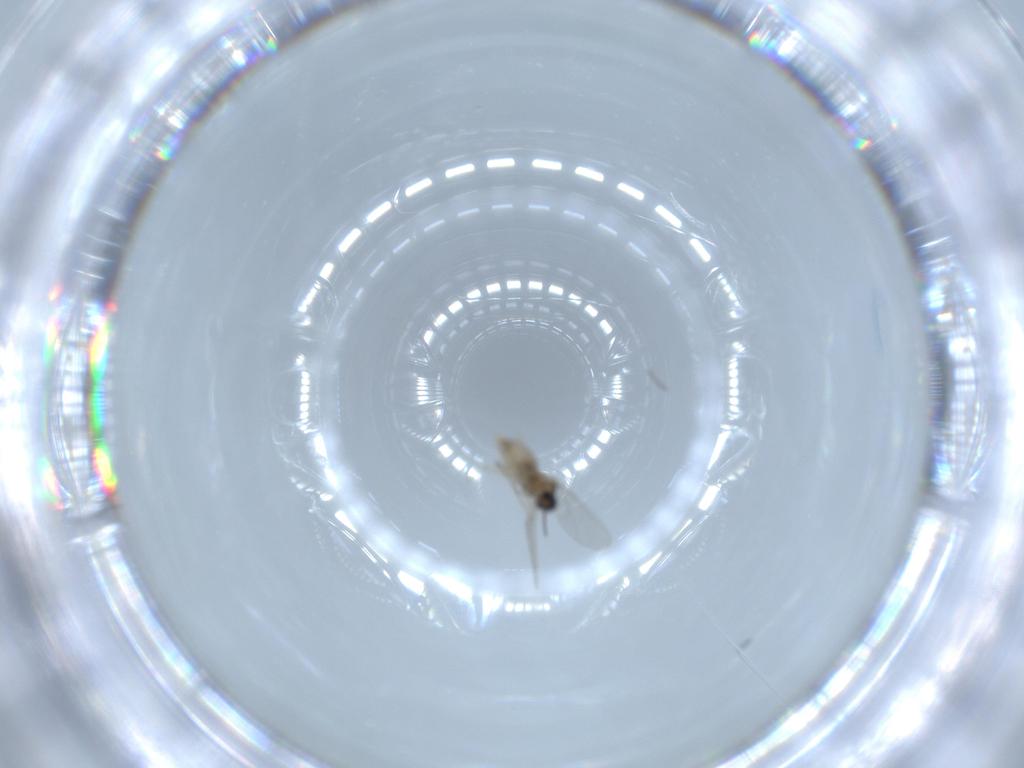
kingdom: Animalia
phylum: Arthropoda
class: Insecta
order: Diptera
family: Cecidomyiidae
